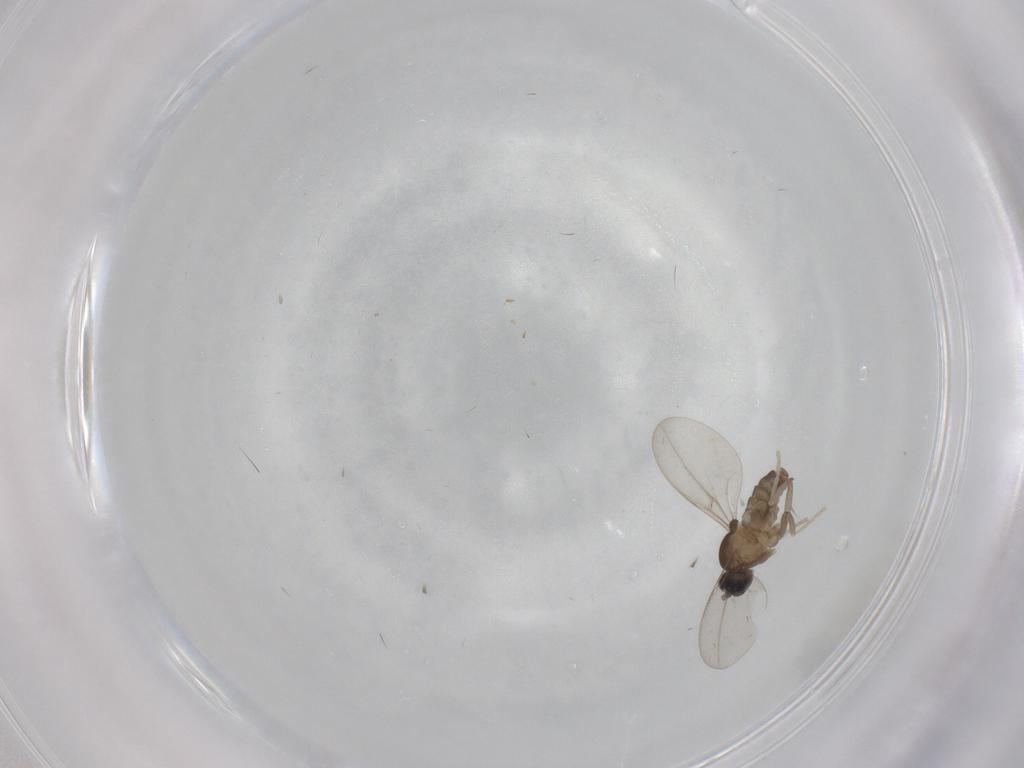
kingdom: Animalia
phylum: Arthropoda
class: Insecta
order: Diptera
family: Cecidomyiidae
